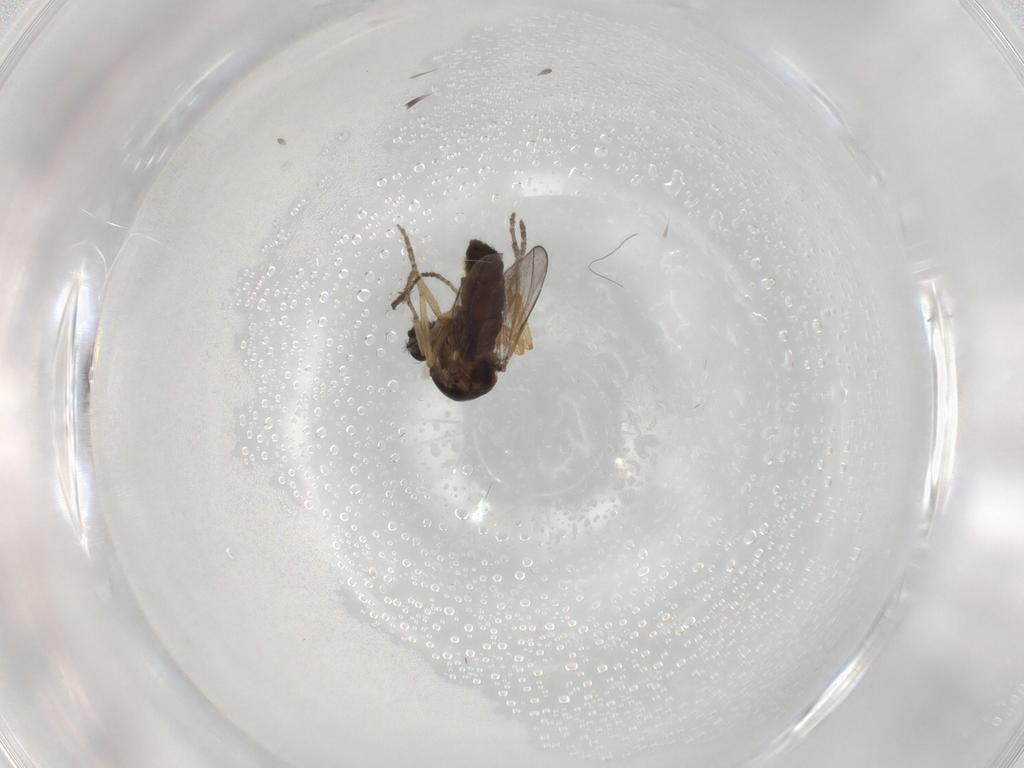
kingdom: Animalia
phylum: Arthropoda
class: Insecta
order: Diptera
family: Ceratopogonidae
